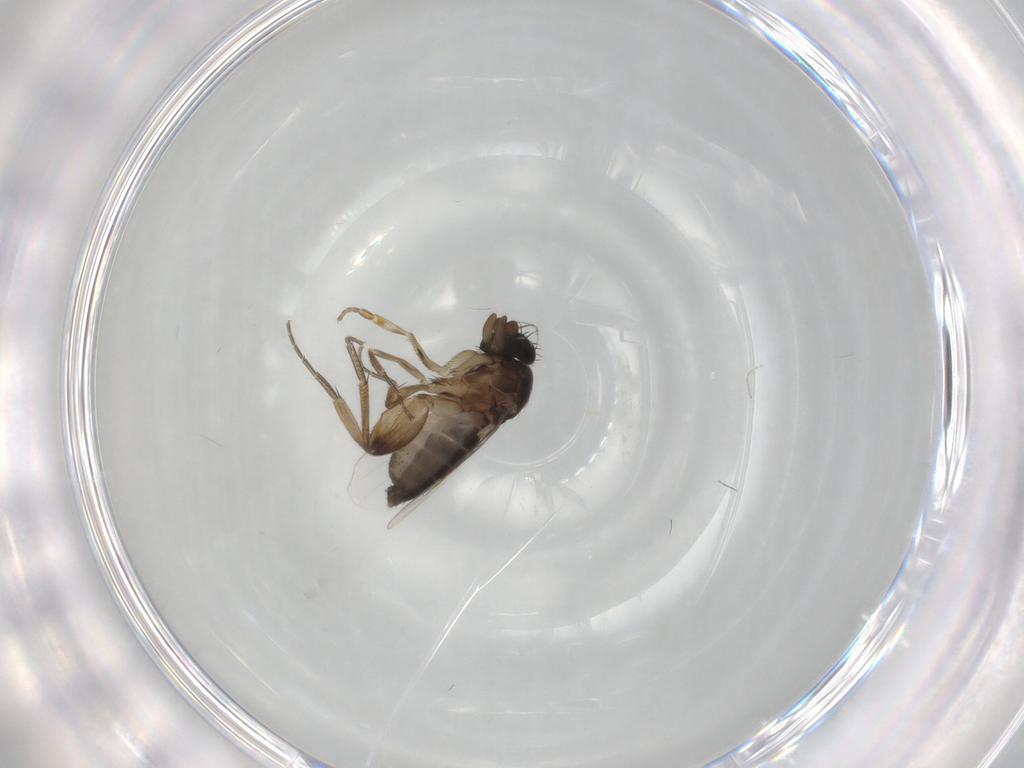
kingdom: Animalia
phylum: Arthropoda
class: Insecta
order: Diptera
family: Phoridae
